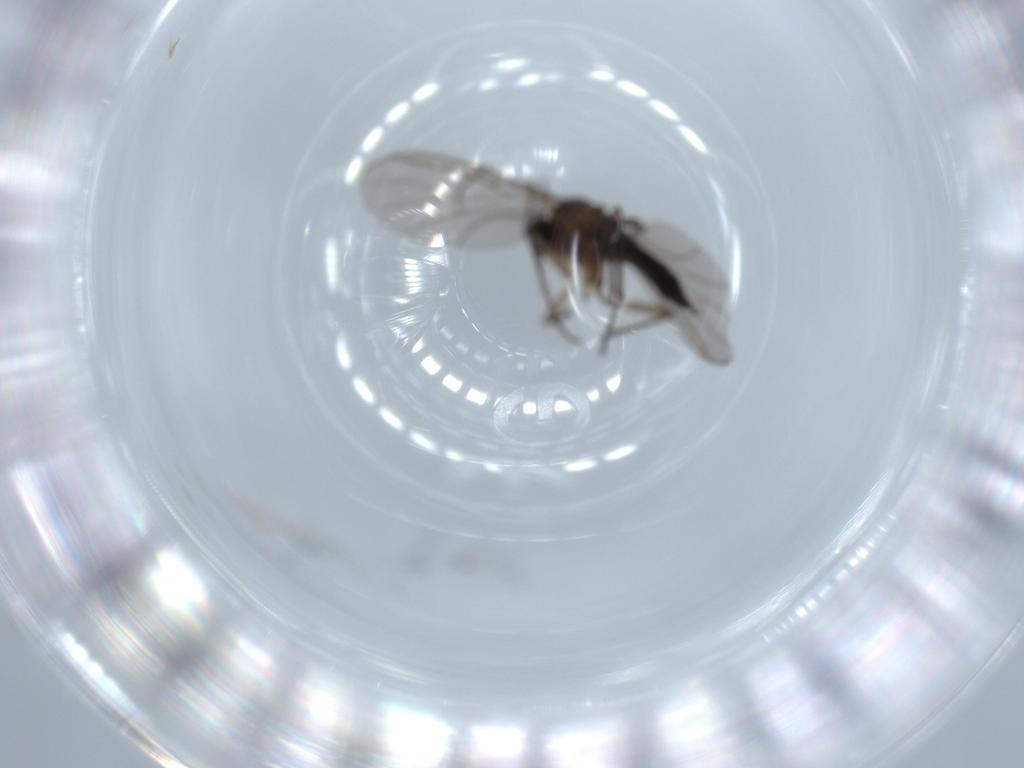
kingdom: Animalia
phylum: Arthropoda
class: Insecta
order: Diptera
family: Sciaridae
